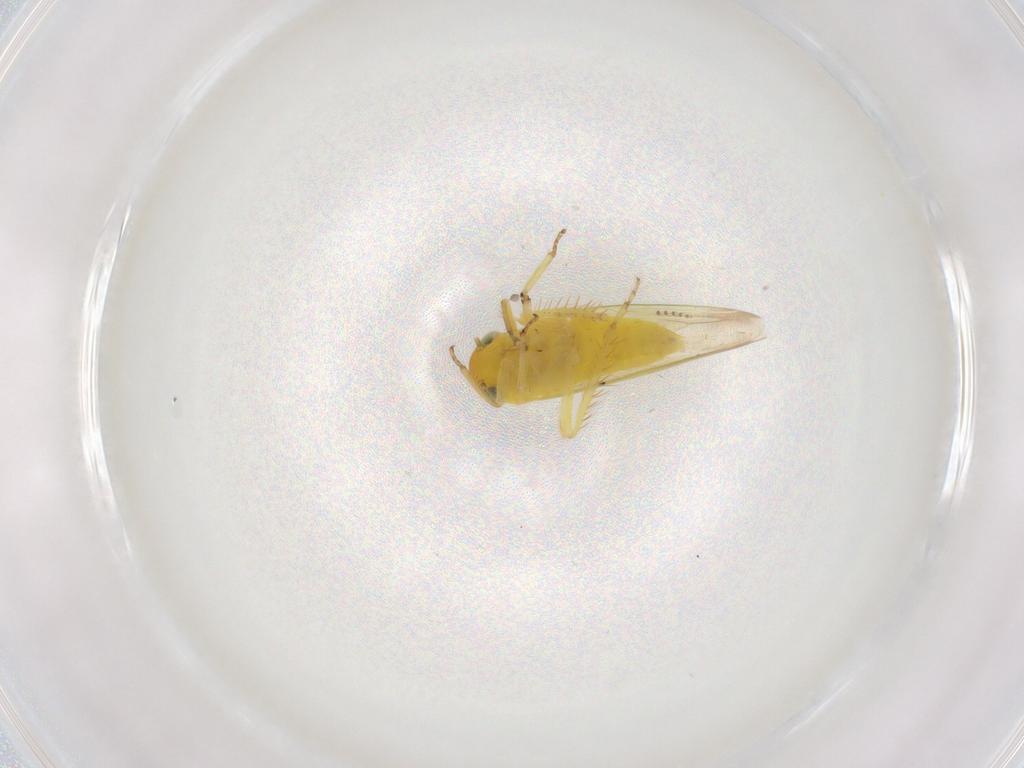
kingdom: Animalia
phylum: Arthropoda
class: Insecta
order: Hemiptera
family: Cicadellidae
